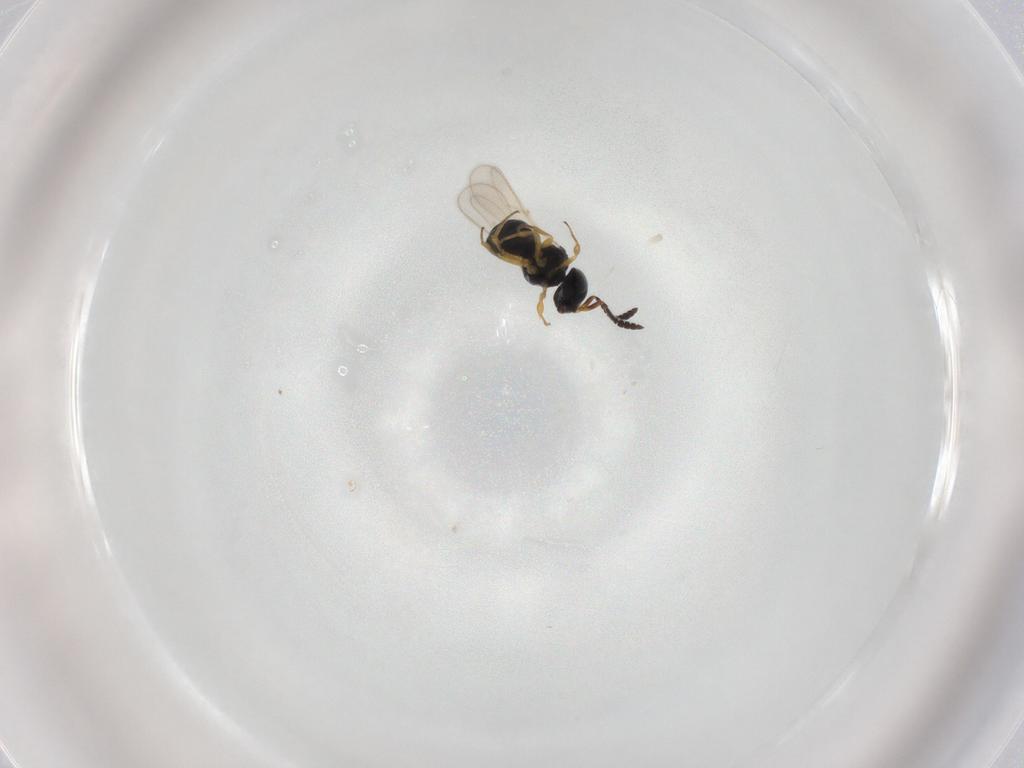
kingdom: Animalia
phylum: Arthropoda
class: Insecta
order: Hymenoptera
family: Scelionidae
